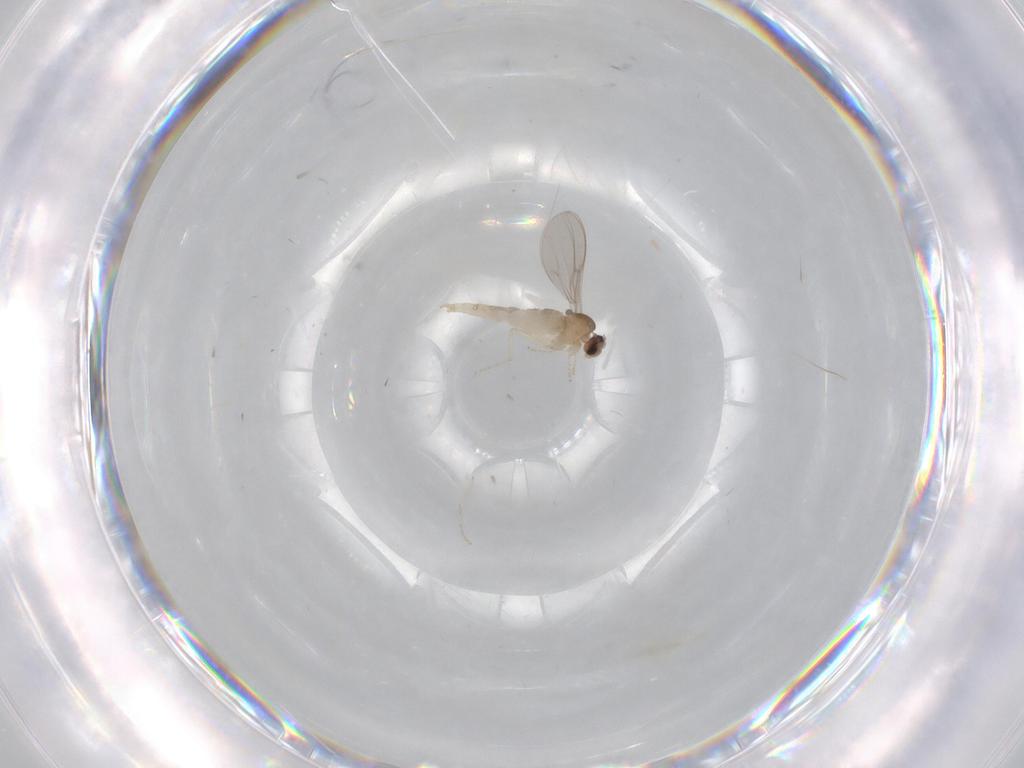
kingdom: Animalia
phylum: Arthropoda
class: Insecta
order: Diptera
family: Cecidomyiidae
